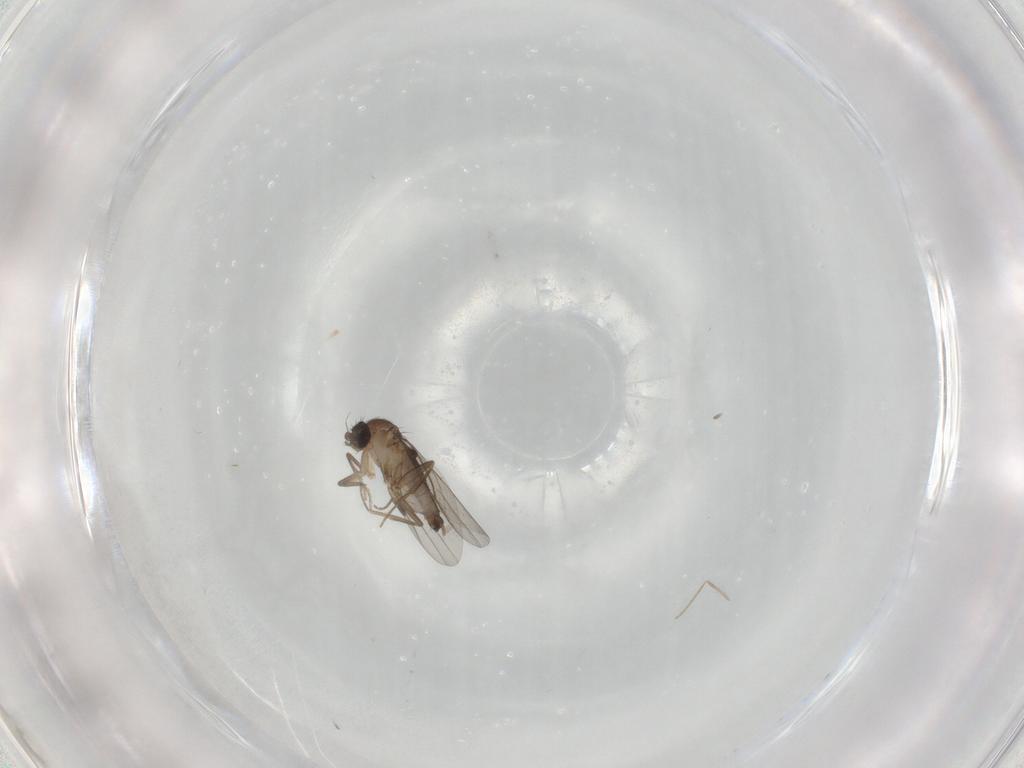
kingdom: Animalia
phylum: Arthropoda
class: Insecta
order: Diptera
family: Phoridae
